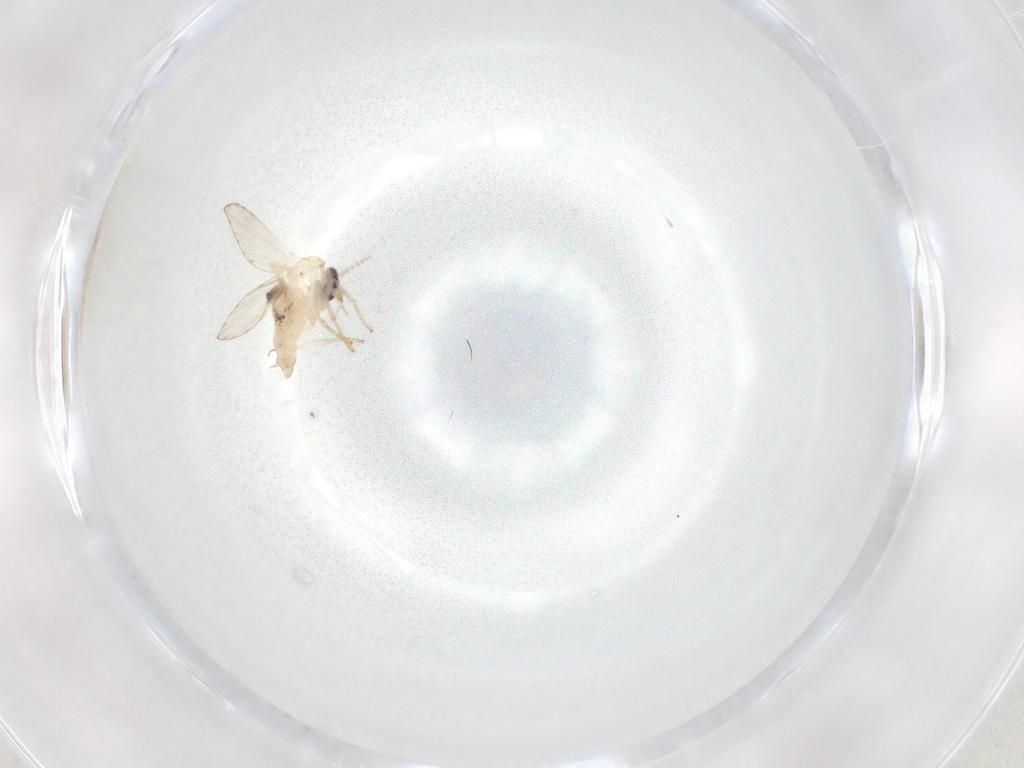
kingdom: Animalia
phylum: Arthropoda
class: Insecta
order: Diptera
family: Psychodidae
